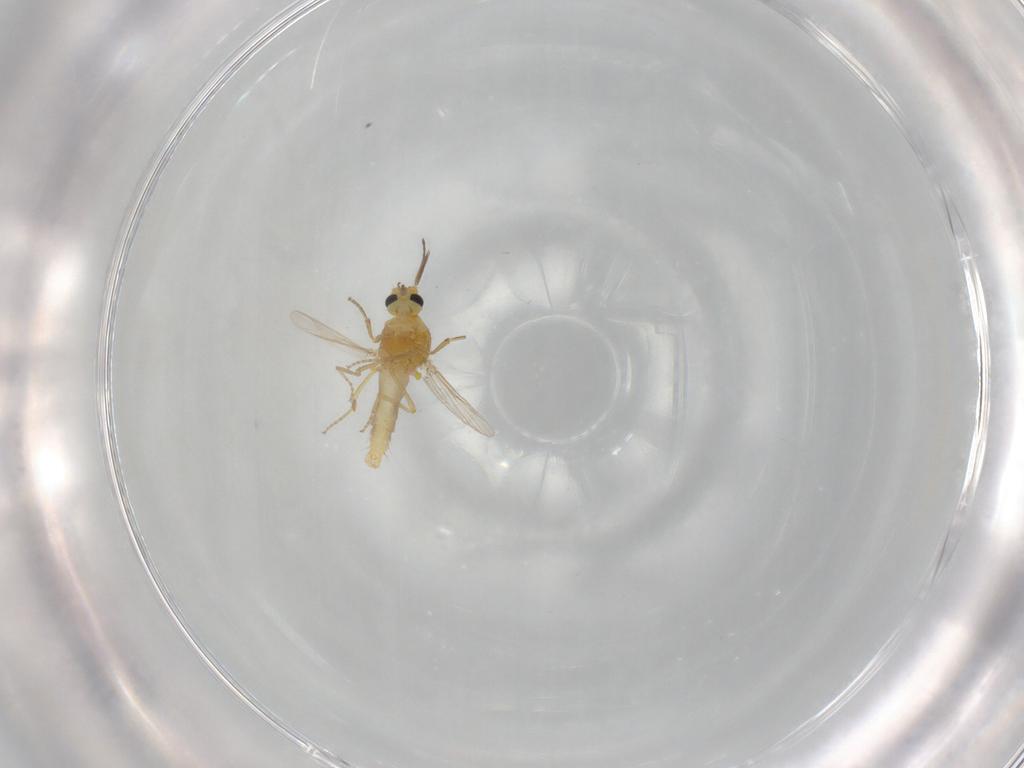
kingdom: Animalia
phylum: Arthropoda
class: Insecta
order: Diptera
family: Ceratopogonidae
